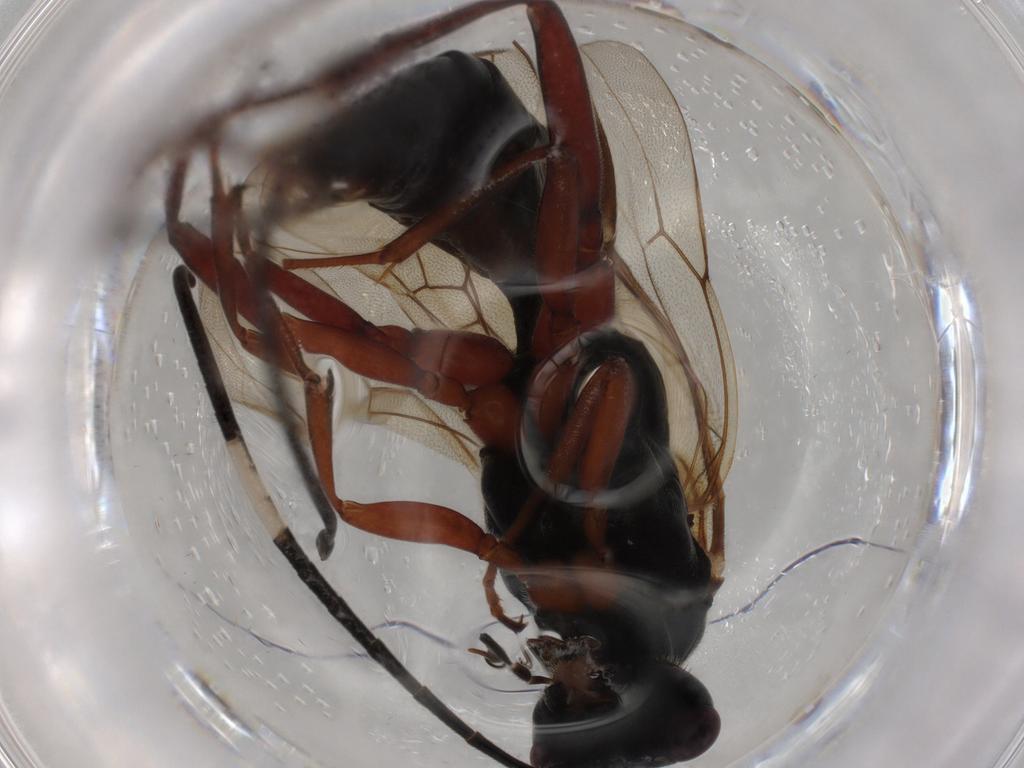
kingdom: Animalia
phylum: Arthropoda
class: Insecta
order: Hymenoptera
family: Ichneumonidae
